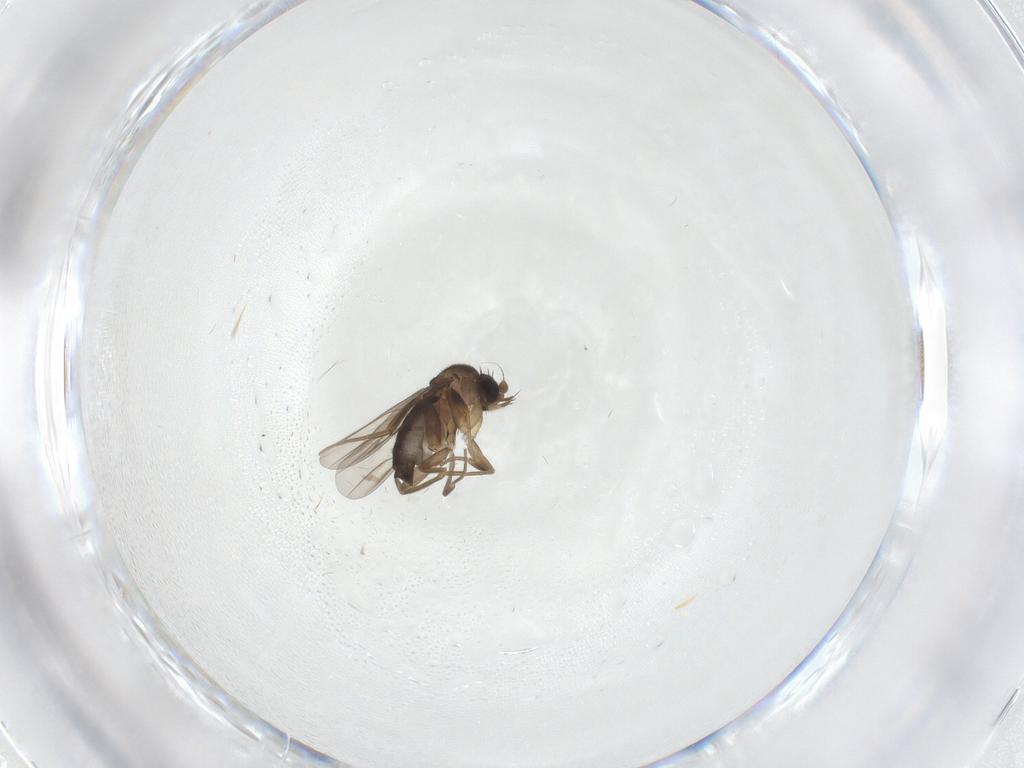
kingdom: Animalia
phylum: Arthropoda
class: Insecta
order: Diptera
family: Phoridae
